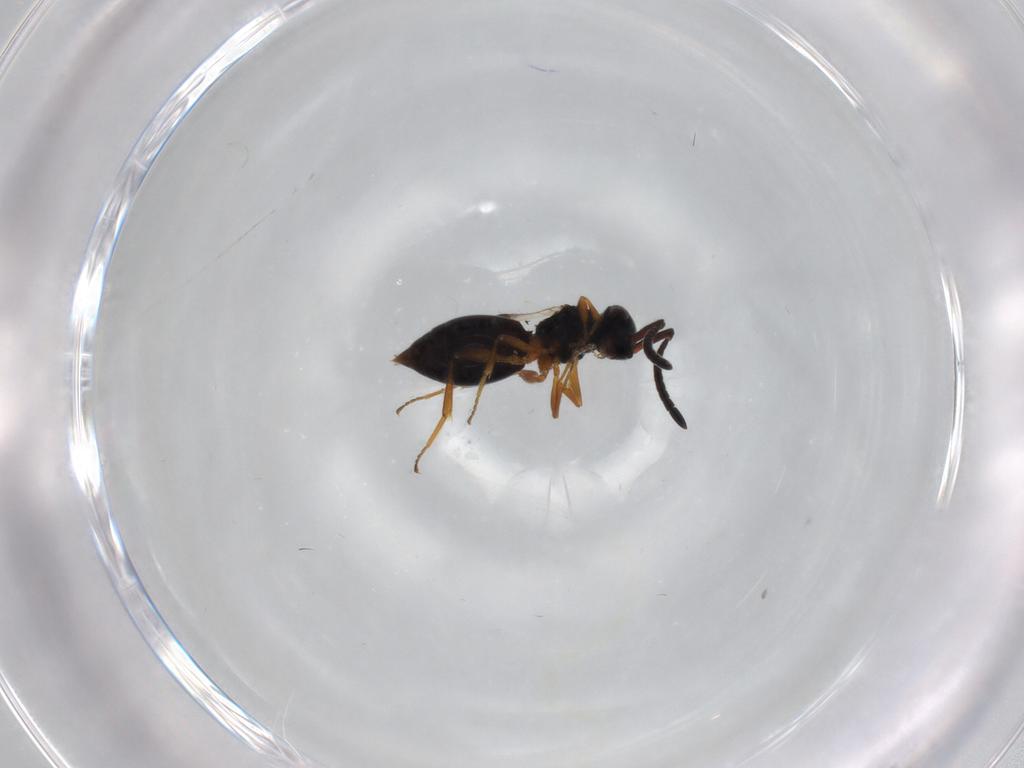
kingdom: Animalia
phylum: Arthropoda
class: Insecta
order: Hymenoptera
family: Megaspilidae
